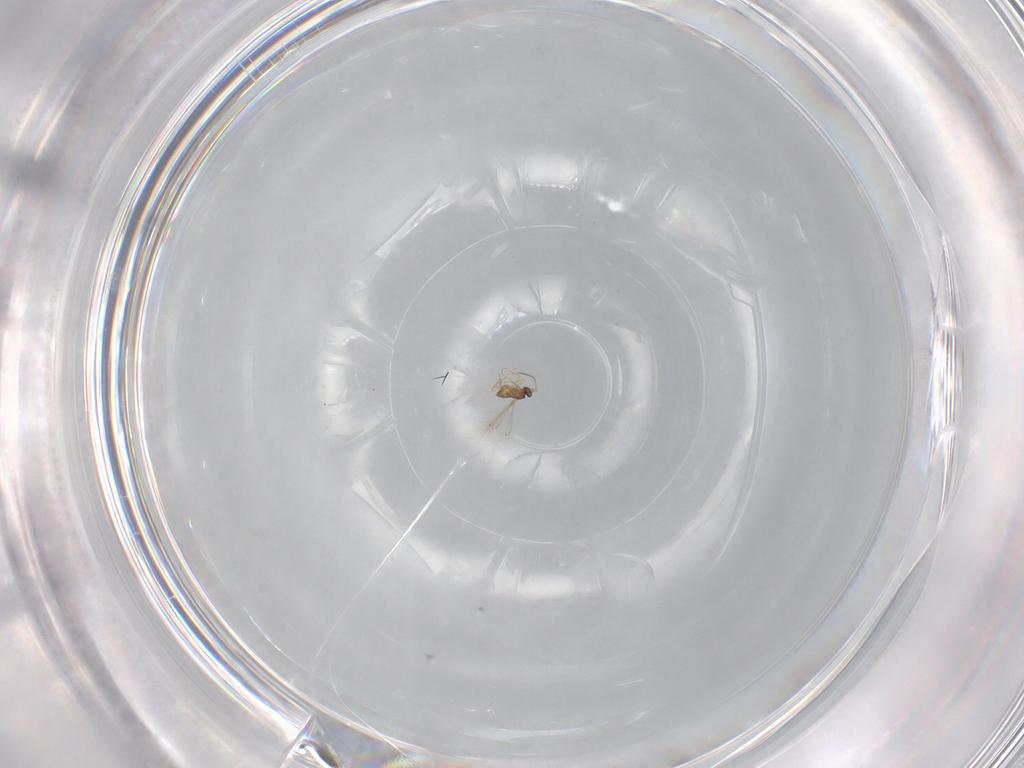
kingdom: Animalia
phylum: Arthropoda
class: Insecta
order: Hymenoptera
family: Mymaridae
